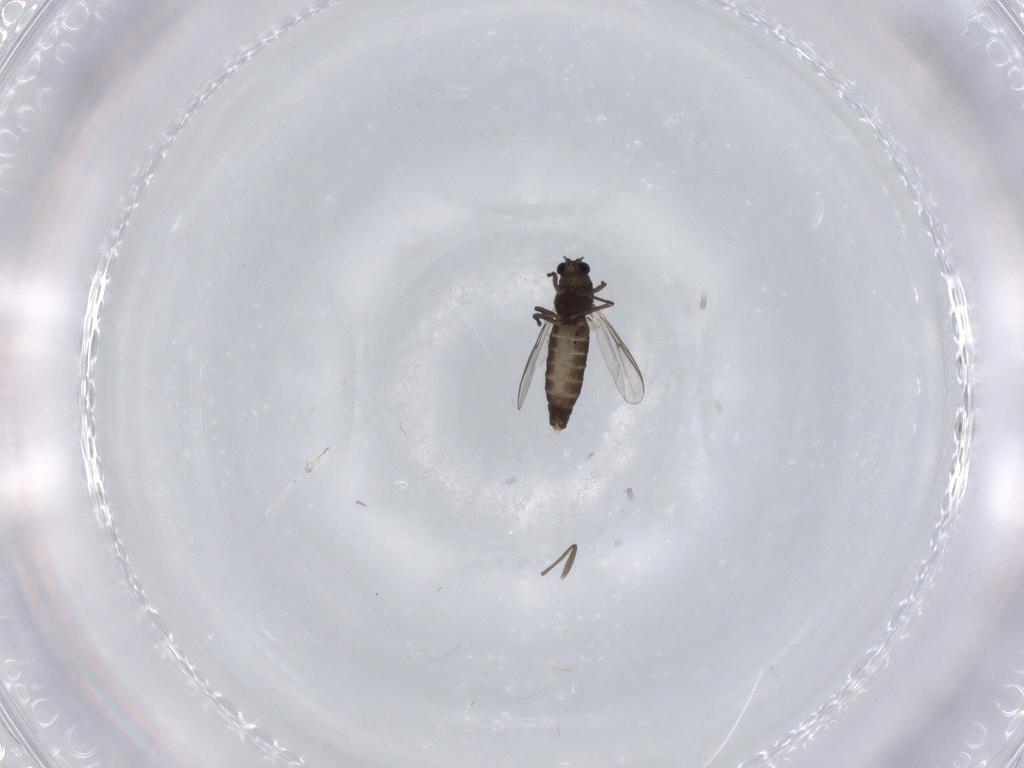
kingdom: Animalia
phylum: Arthropoda
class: Insecta
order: Diptera
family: Chironomidae
